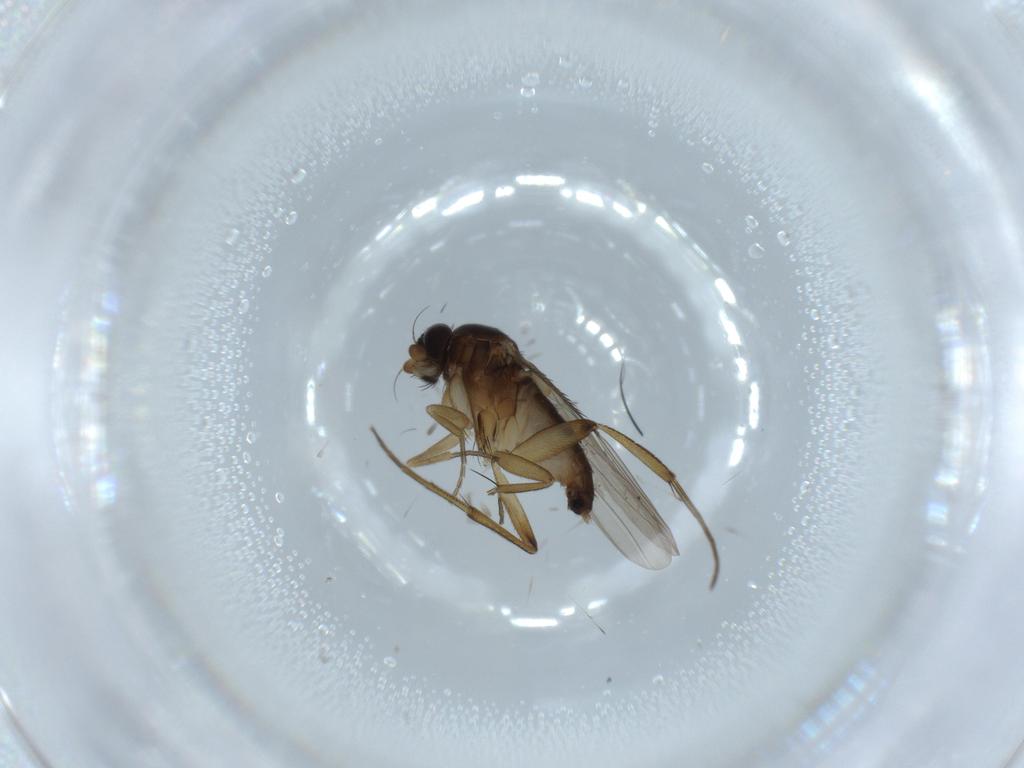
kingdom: Animalia
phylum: Arthropoda
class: Insecta
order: Diptera
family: Phoridae
